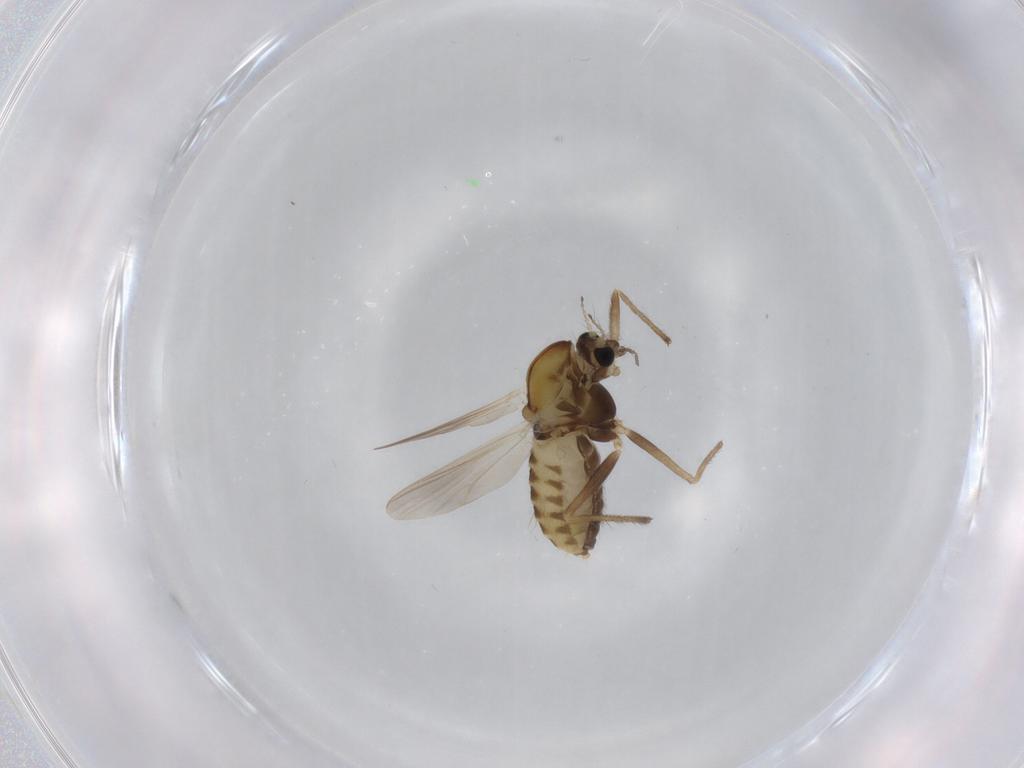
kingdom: Animalia
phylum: Arthropoda
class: Insecta
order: Diptera
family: Chironomidae
